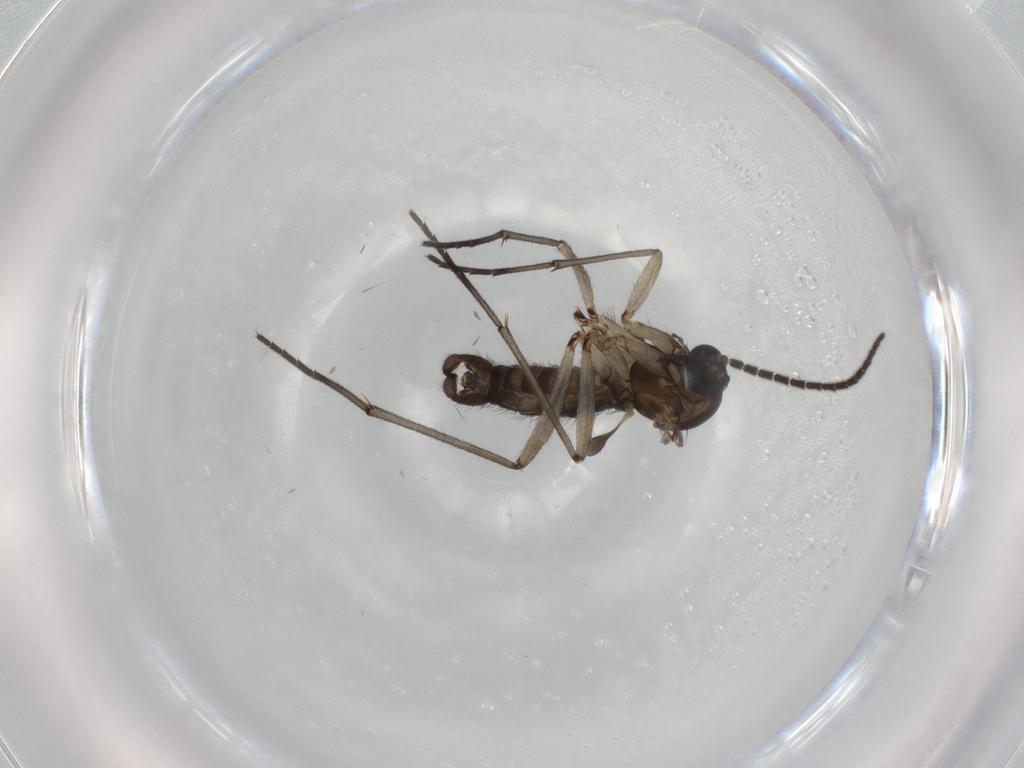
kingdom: Animalia
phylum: Arthropoda
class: Insecta
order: Diptera
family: Sciaridae
